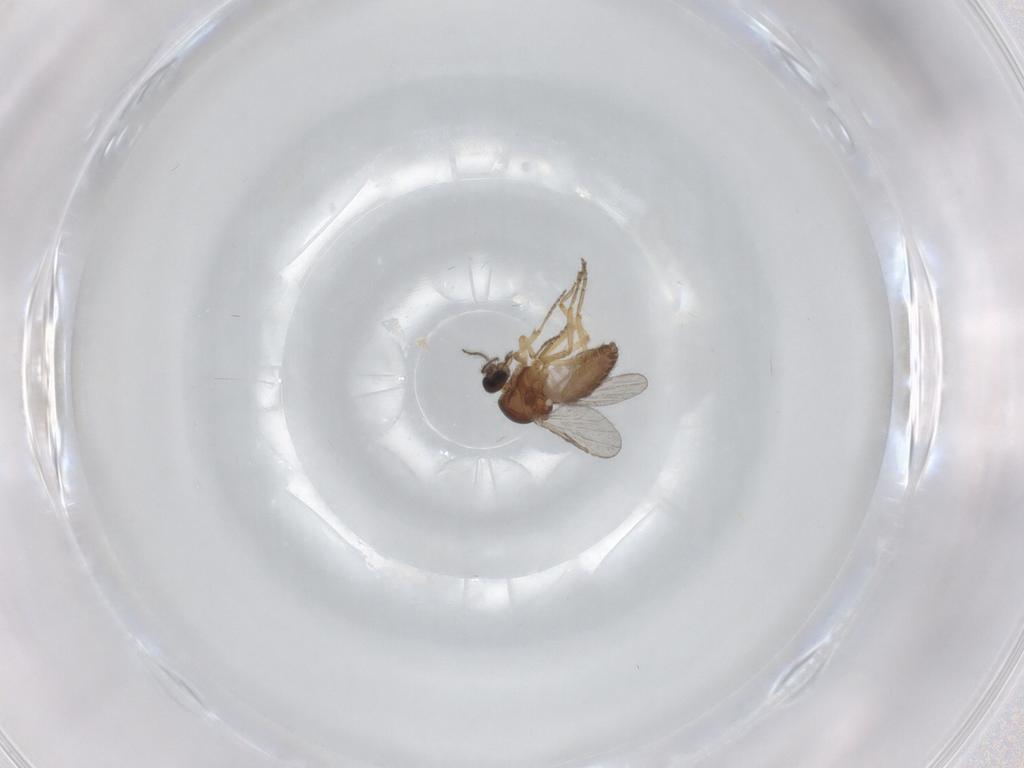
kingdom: Animalia
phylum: Arthropoda
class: Insecta
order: Diptera
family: Ceratopogonidae
